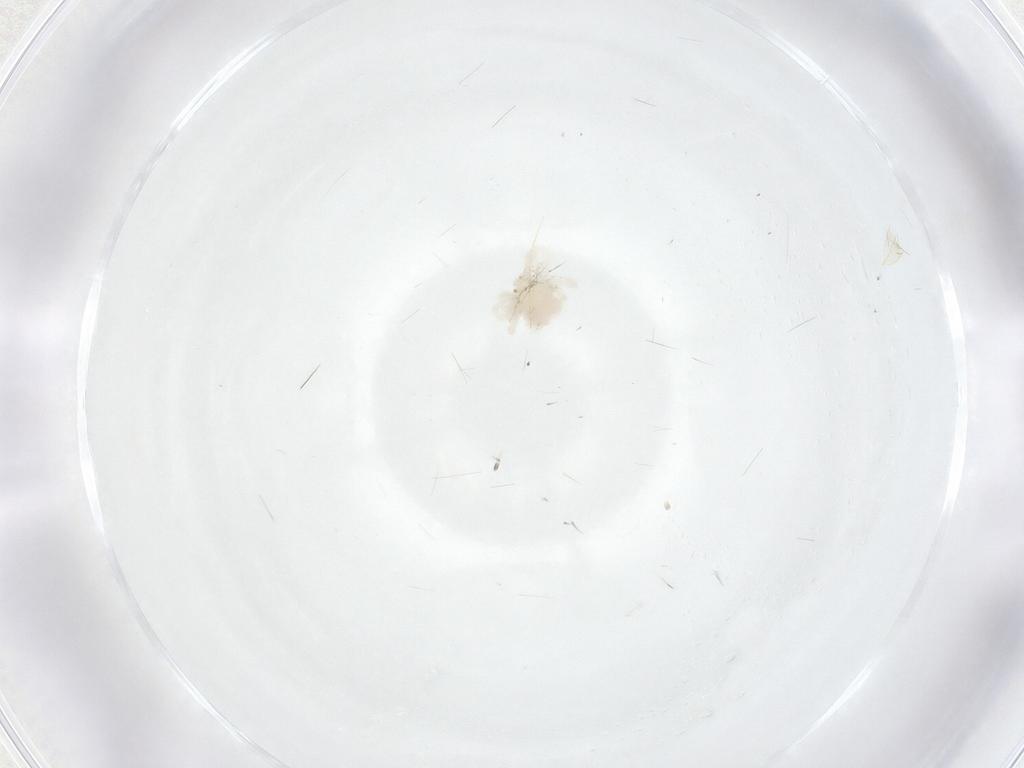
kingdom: Animalia
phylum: Arthropoda
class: Arachnida
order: Trombidiformes
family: Anystidae
